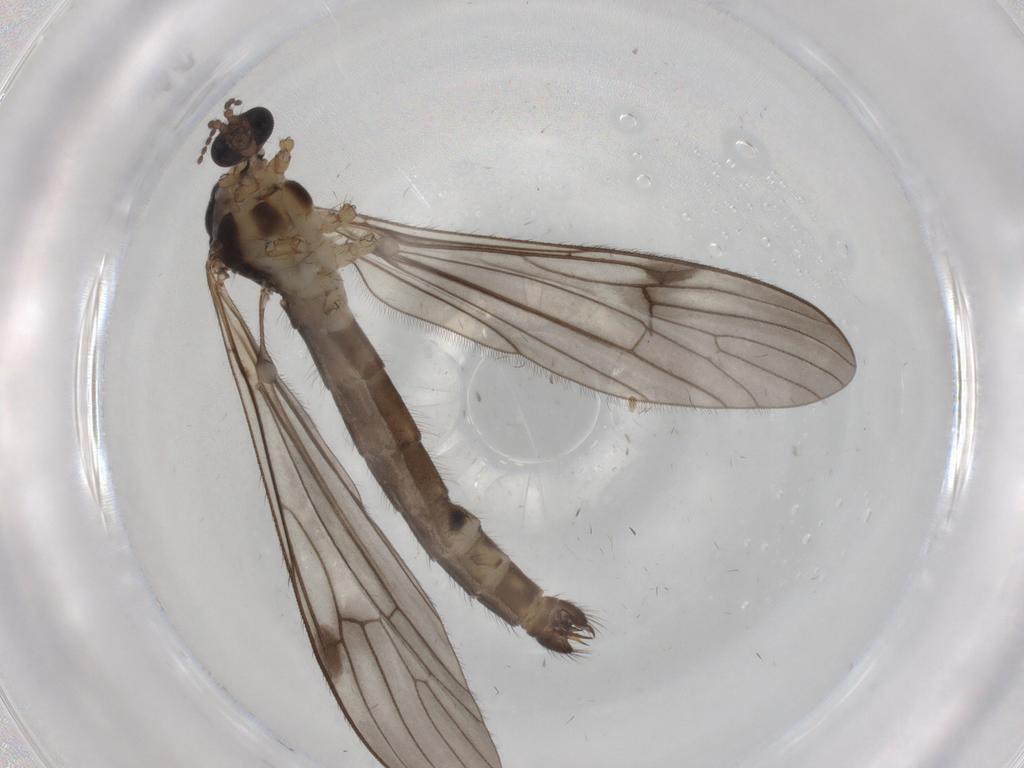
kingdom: Animalia
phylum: Arthropoda
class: Insecta
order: Diptera
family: Limoniidae
